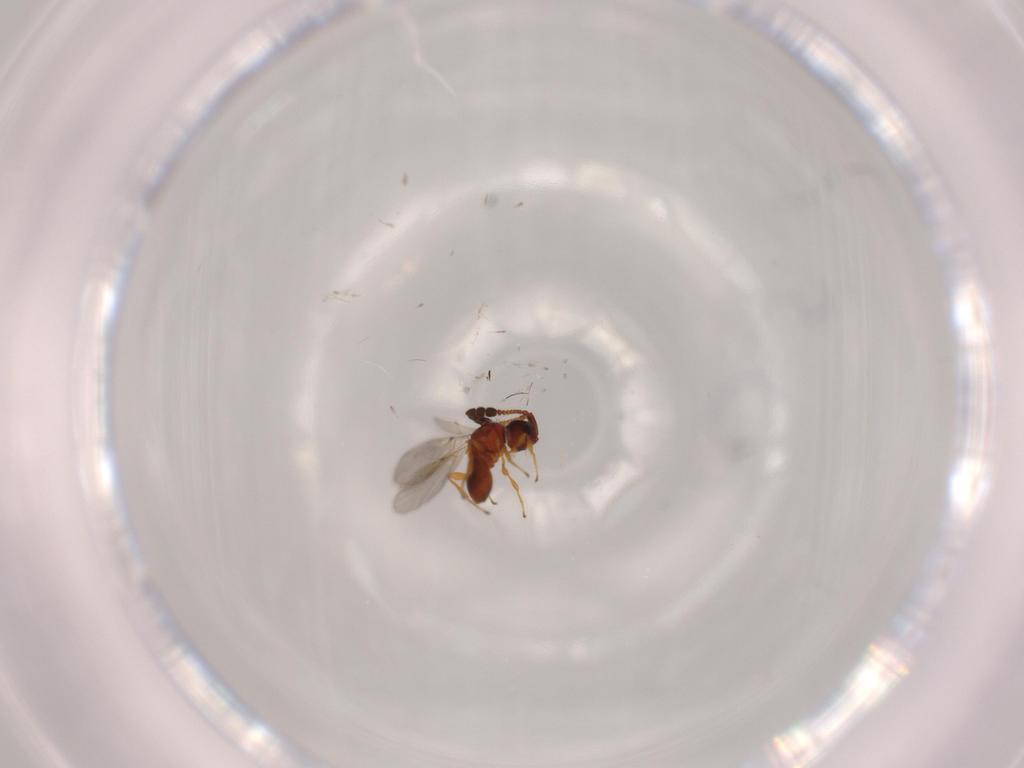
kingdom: Animalia
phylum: Arthropoda
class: Insecta
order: Hymenoptera
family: Diapriidae
